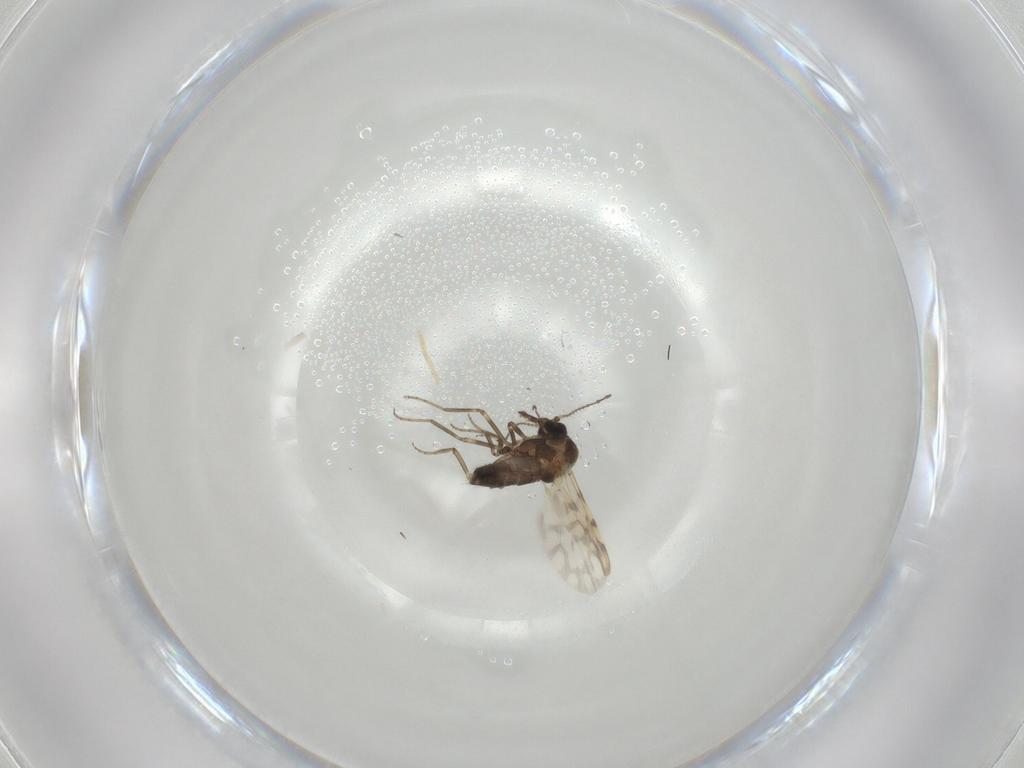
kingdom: Animalia
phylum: Arthropoda
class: Insecta
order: Diptera
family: Ceratopogonidae
